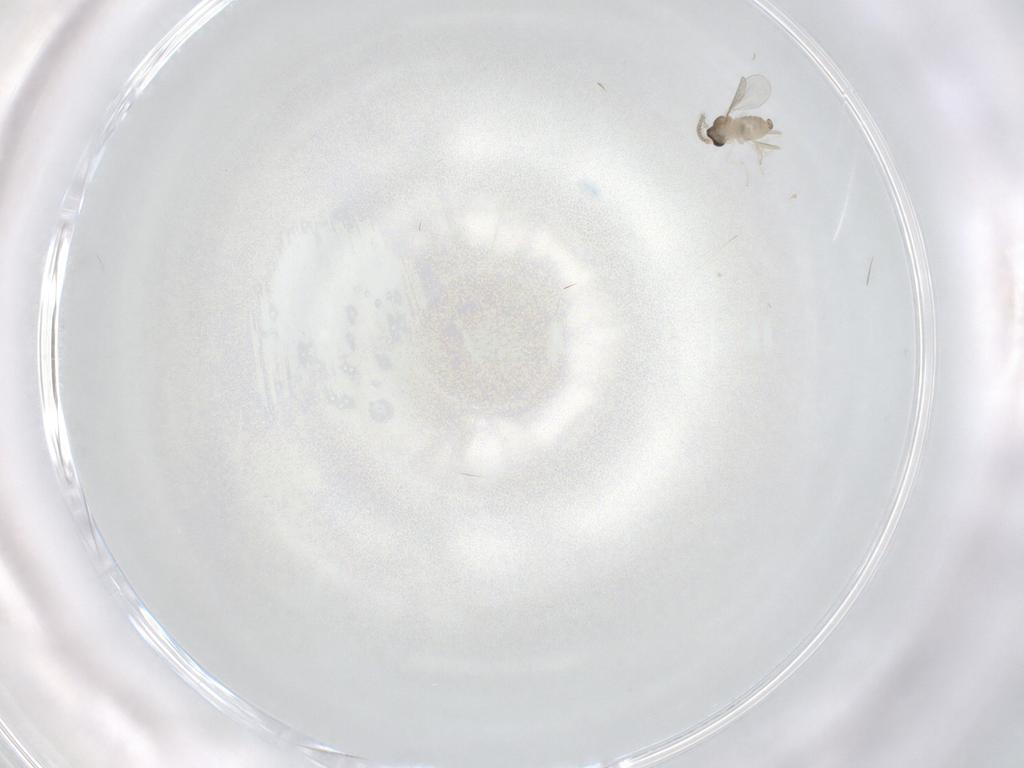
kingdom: Animalia
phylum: Arthropoda
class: Insecta
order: Diptera
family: Cecidomyiidae
